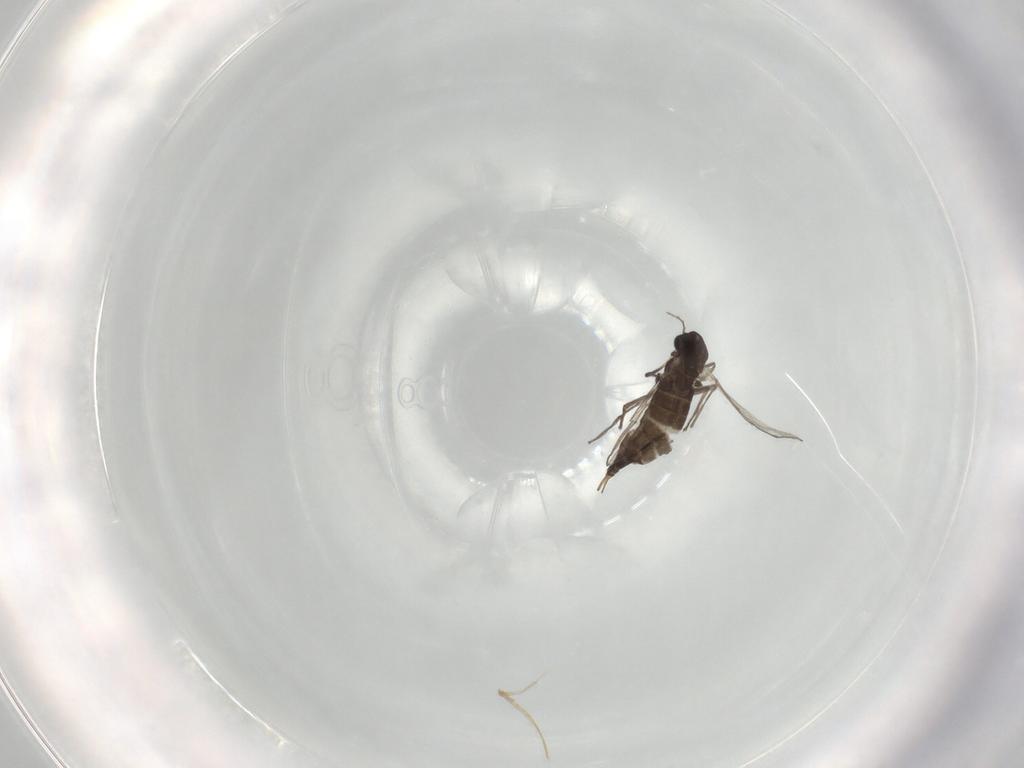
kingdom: Animalia
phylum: Arthropoda
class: Insecta
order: Diptera
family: Chironomidae
